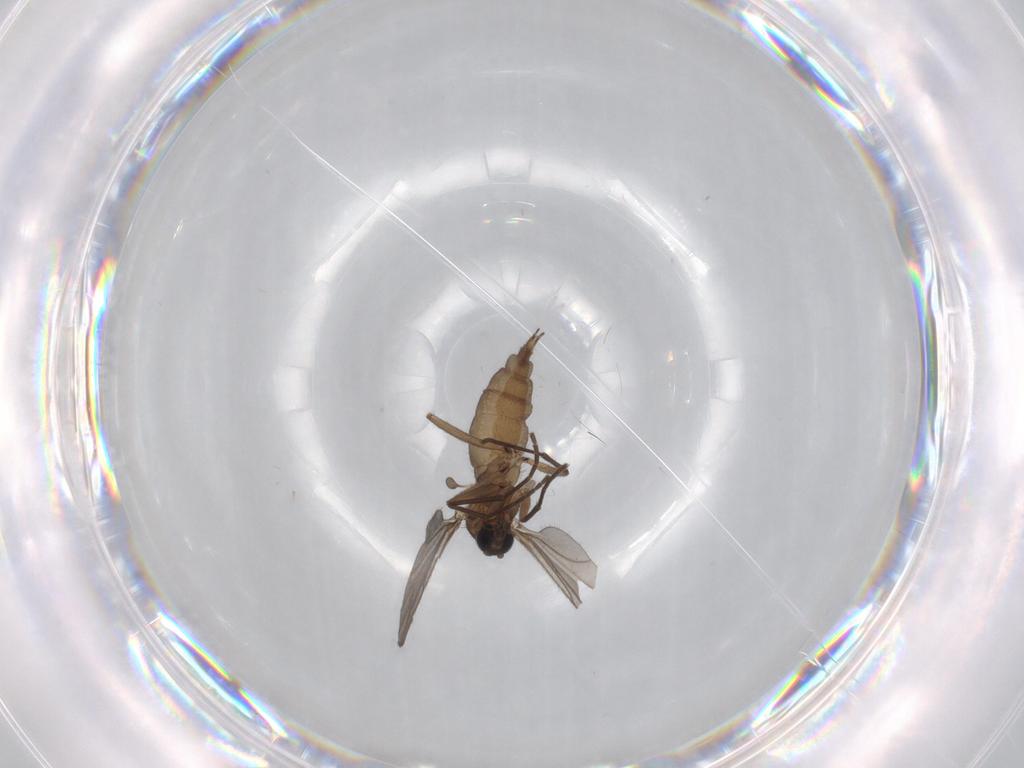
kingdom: Animalia
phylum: Arthropoda
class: Insecta
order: Diptera
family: Sciaridae
